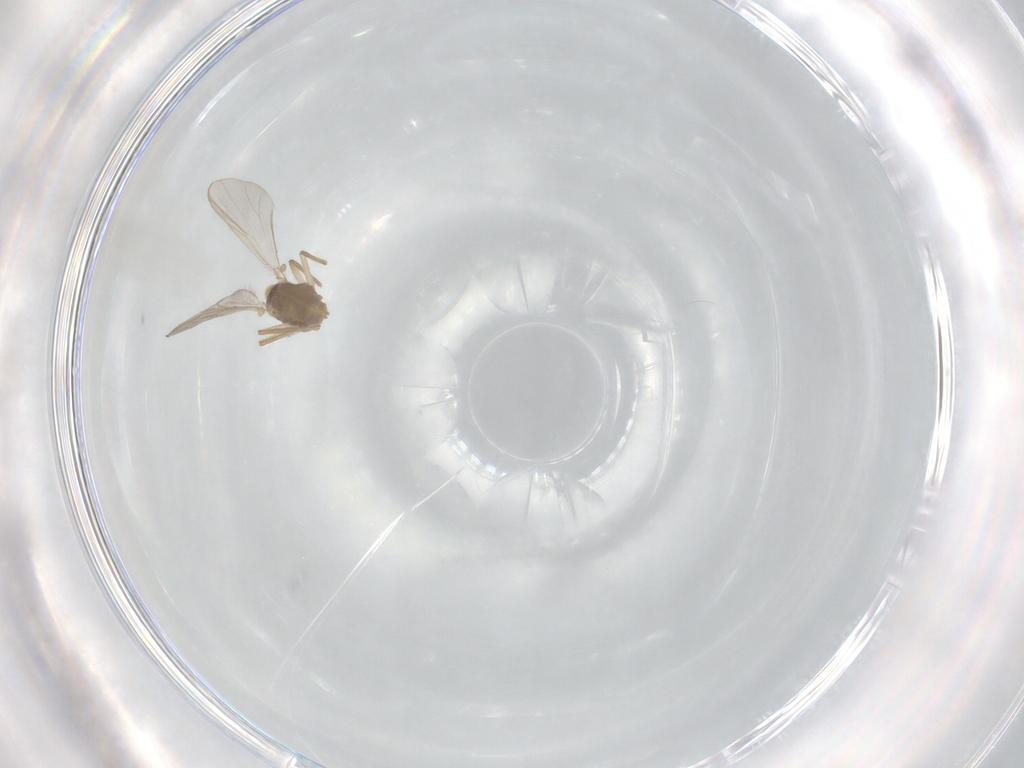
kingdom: Animalia
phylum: Arthropoda
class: Insecta
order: Diptera
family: Chironomidae
